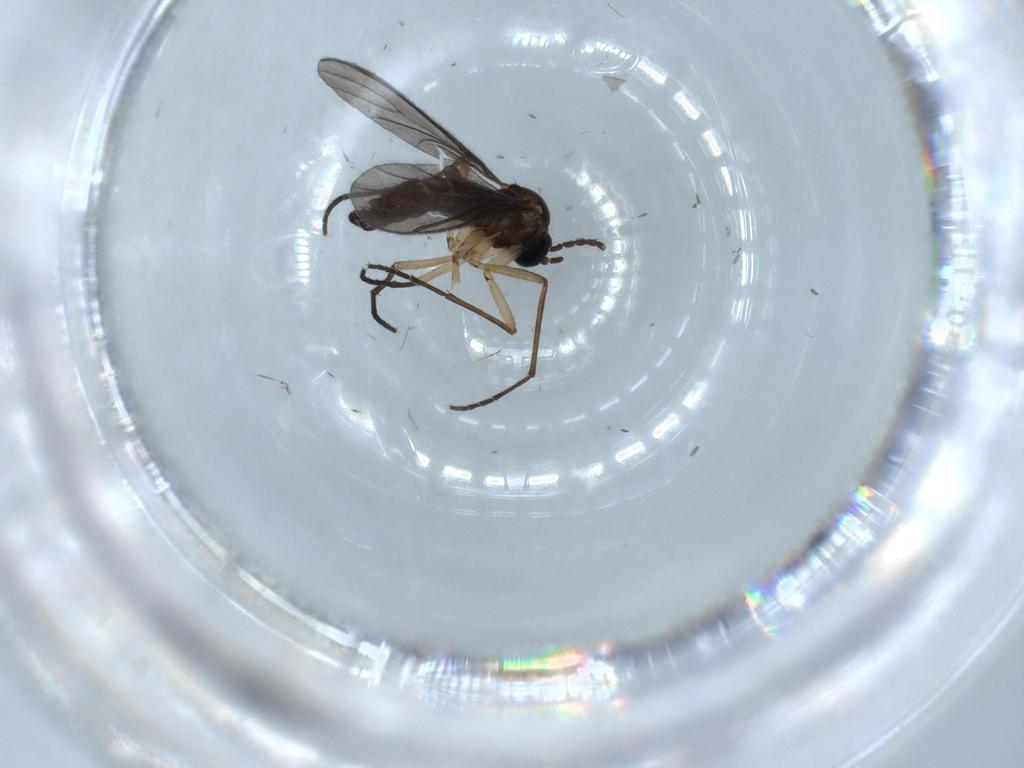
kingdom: Animalia
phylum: Arthropoda
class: Insecta
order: Diptera
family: Sciaridae
